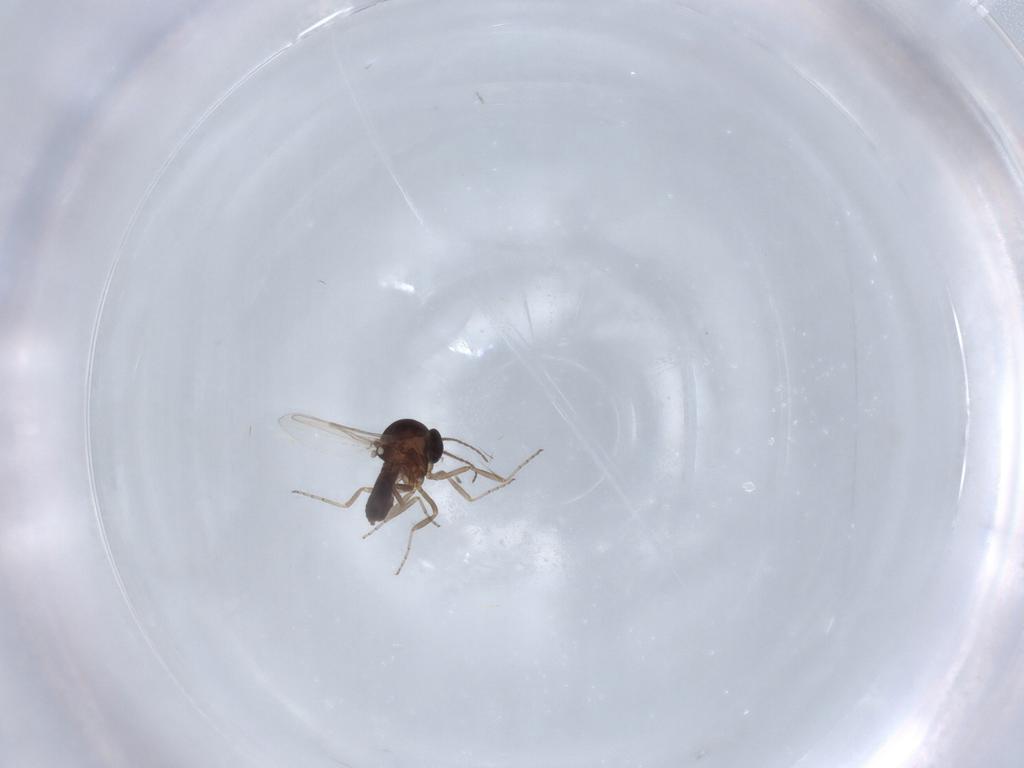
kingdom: Animalia
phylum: Arthropoda
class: Insecta
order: Diptera
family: Ceratopogonidae
